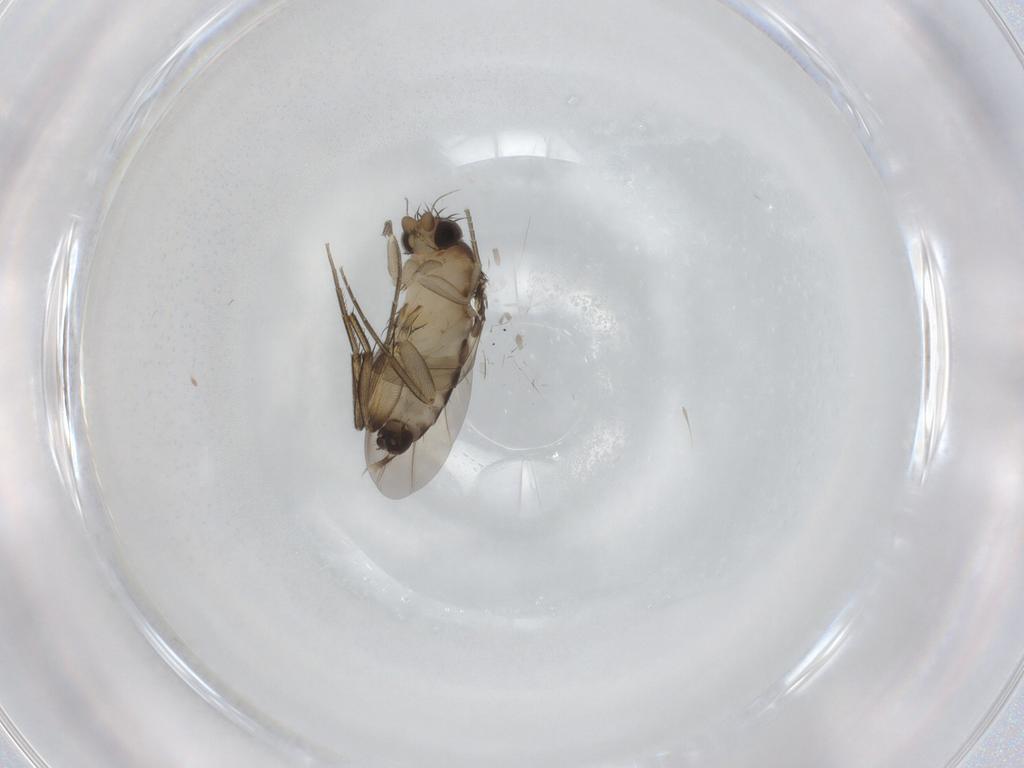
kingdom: Animalia
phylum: Arthropoda
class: Insecta
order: Diptera
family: Phoridae
